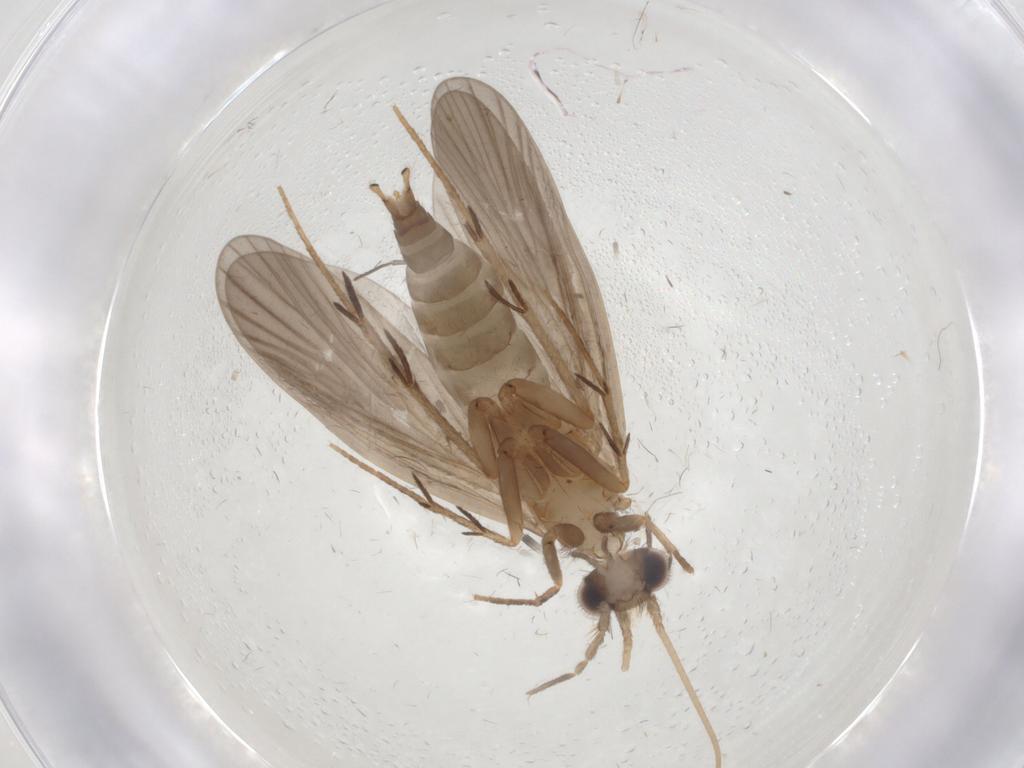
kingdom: Animalia
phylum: Arthropoda
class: Insecta
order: Trichoptera
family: Philopotamidae
